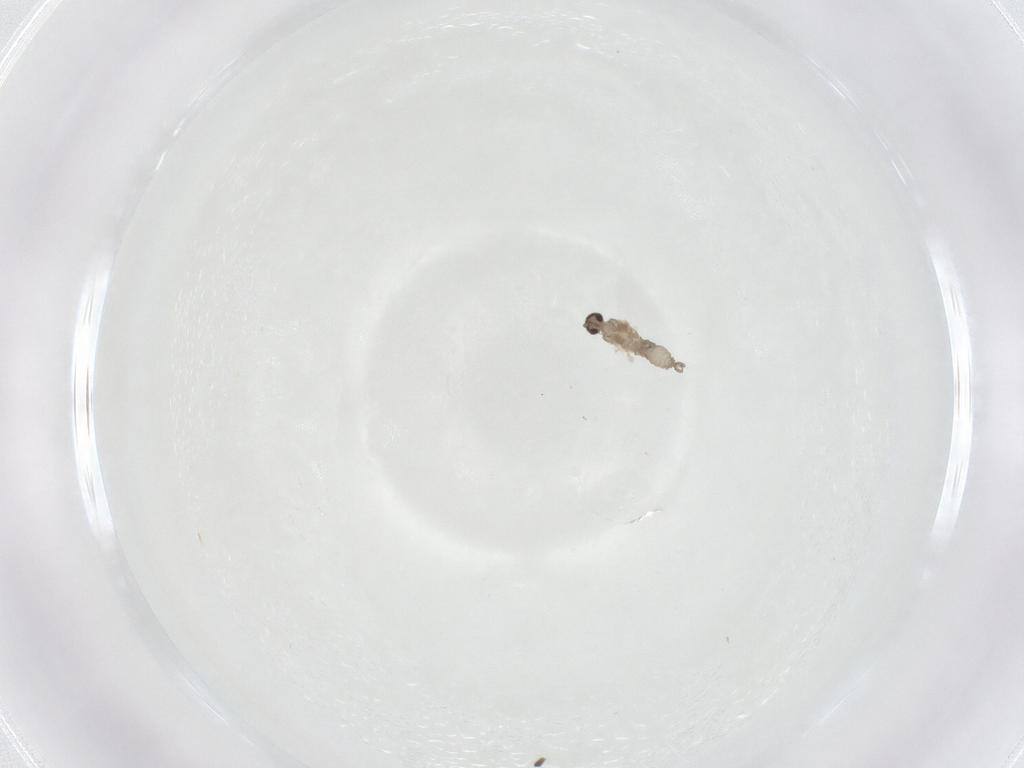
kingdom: Animalia
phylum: Arthropoda
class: Insecta
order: Diptera
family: Cecidomyiidae
